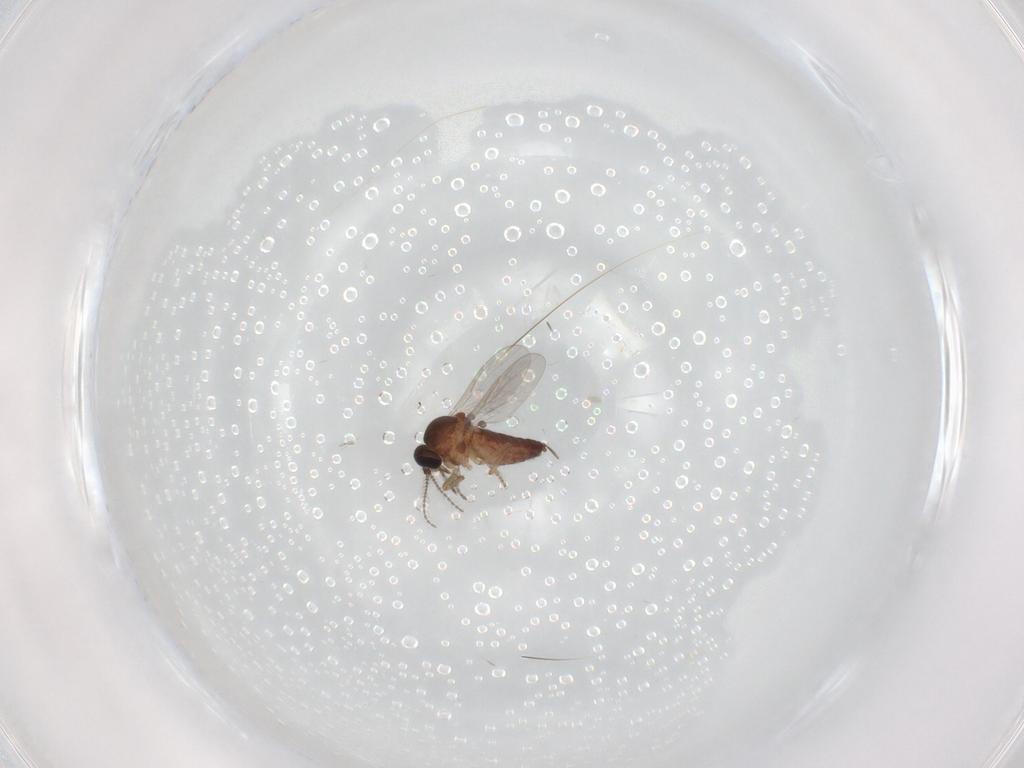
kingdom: Animalia
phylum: Arthropoda
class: Insecta
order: Diptera
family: Ceratopogonidae
